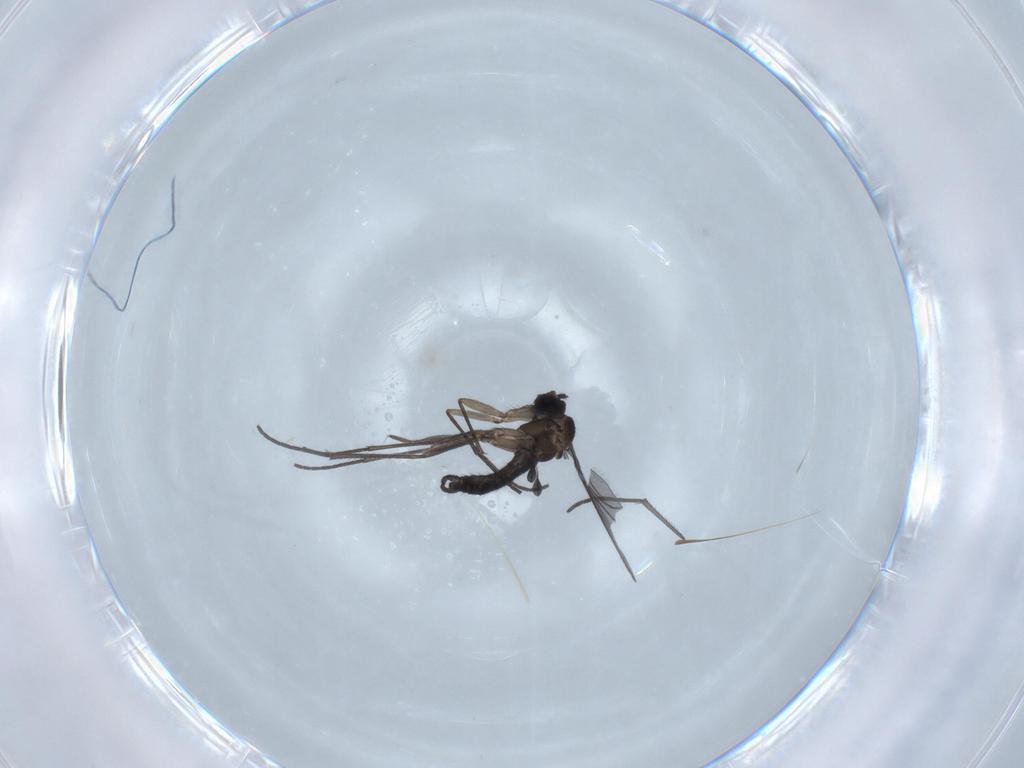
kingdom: Animalia
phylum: Arthropoda
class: Insecta
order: Diptera
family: Sciaridae
